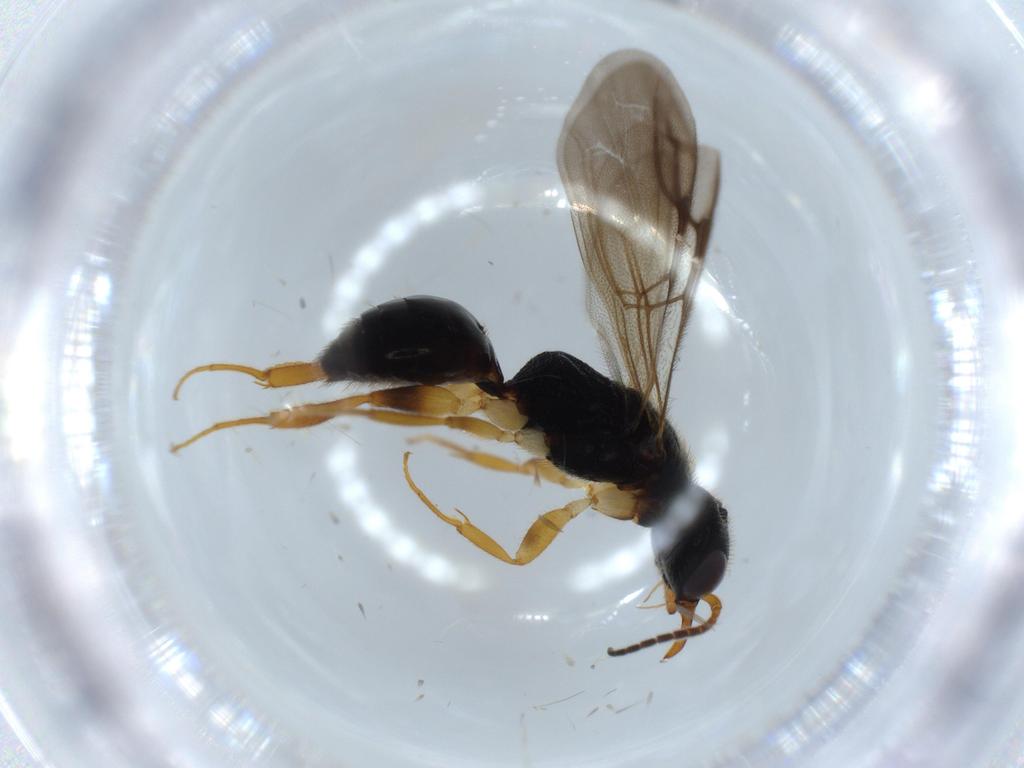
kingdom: Animalia
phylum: Arthropoda
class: Insecta
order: Hymenoptera
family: Bethylidae
